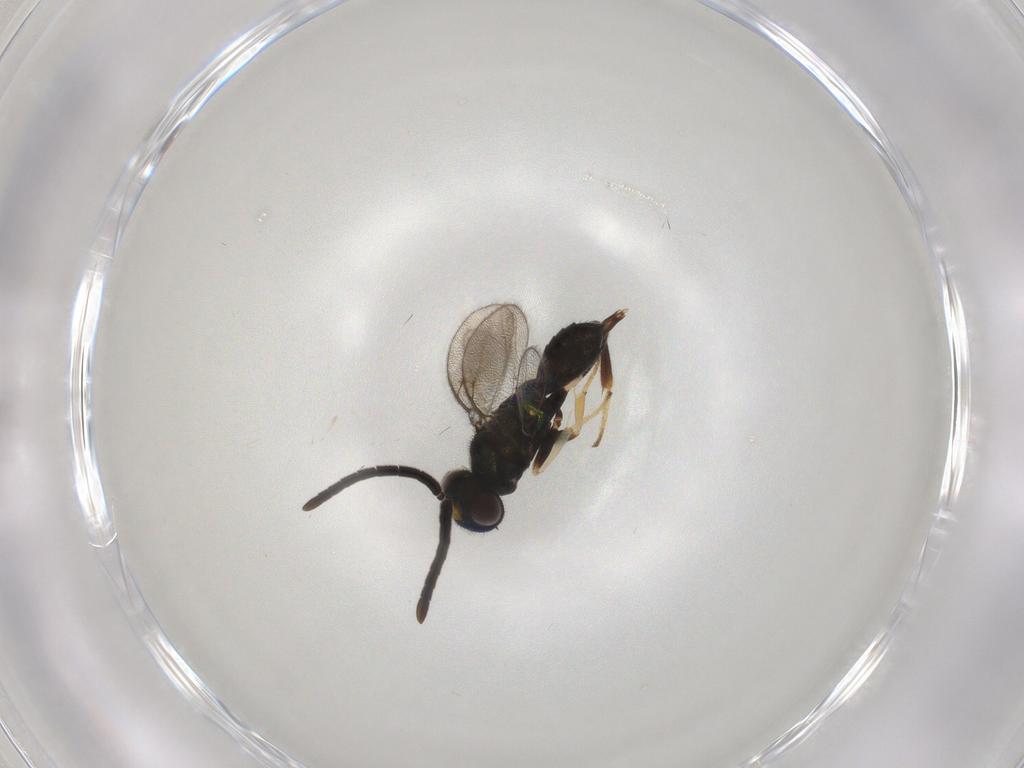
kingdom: Animalia
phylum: Arthropoda
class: Insecta
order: Hymenoptera
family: Eupelmidae
